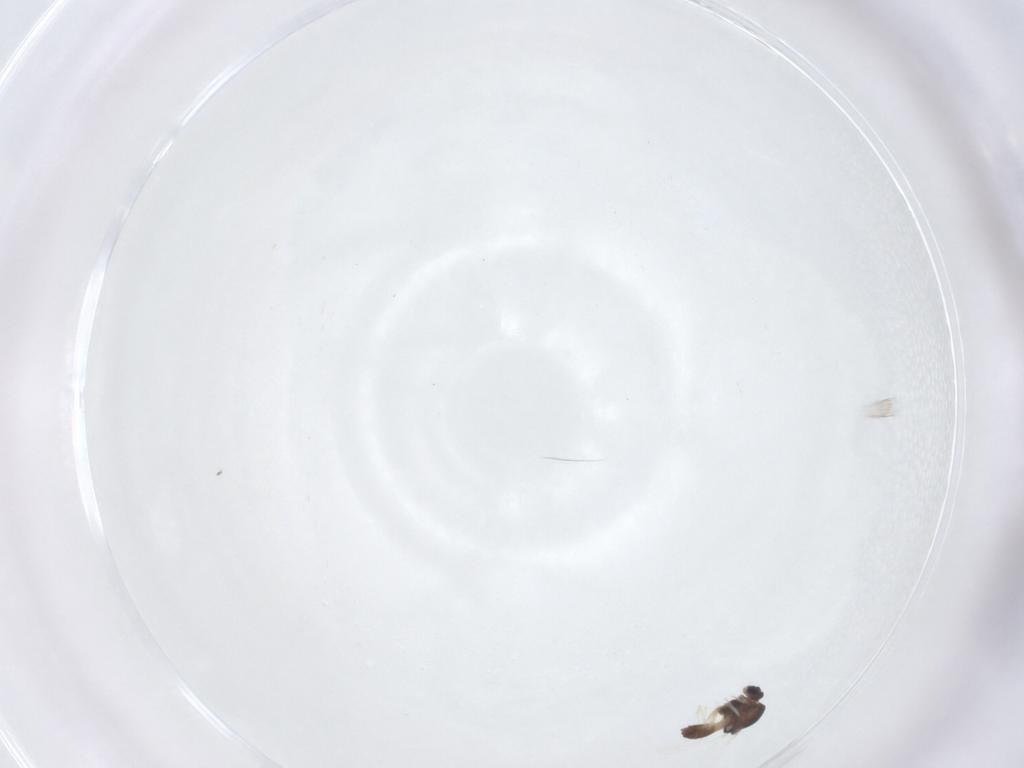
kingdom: Animalia
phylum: Arthropoda
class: Insecta
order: Diptera
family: Chironomidae
